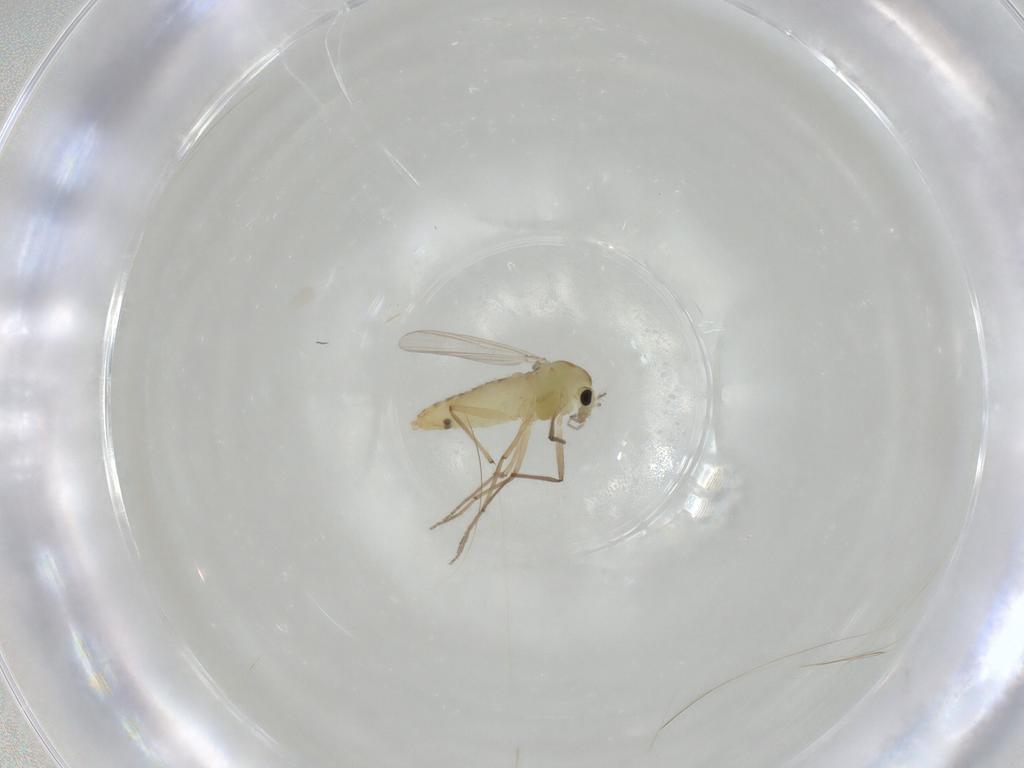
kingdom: Animalia
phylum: Arthropoda
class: Insecta
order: Diptera
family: Chironomidae
